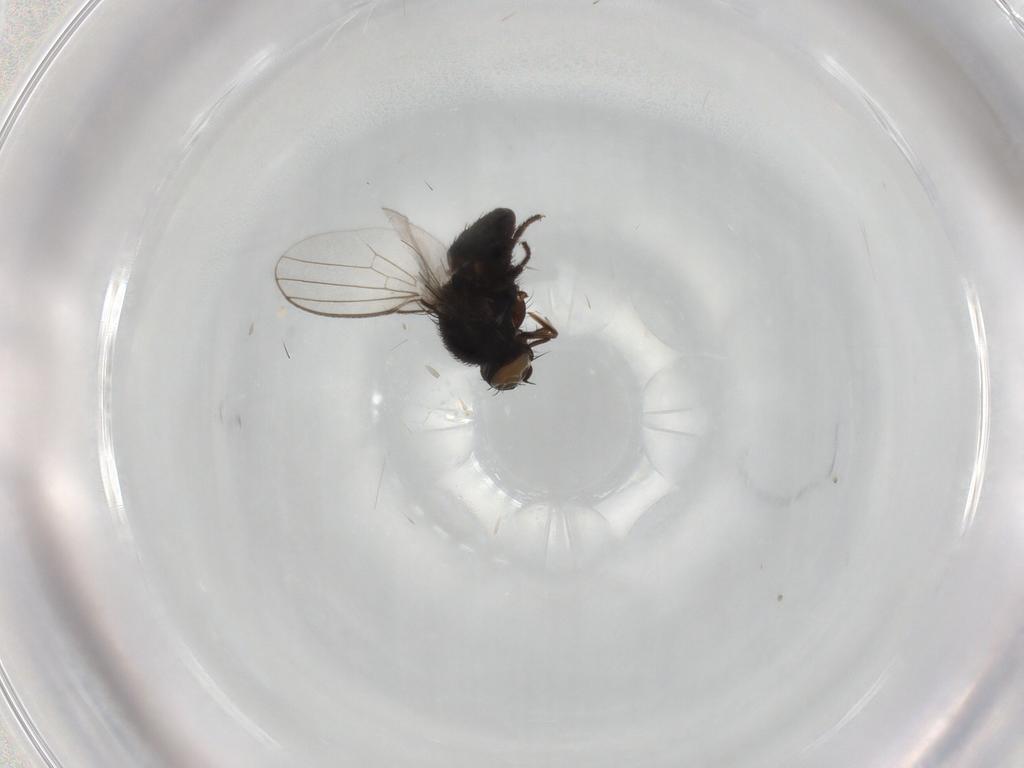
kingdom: Animalia
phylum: Arthropoda
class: Insecta
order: Diptera
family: Milichiidae
